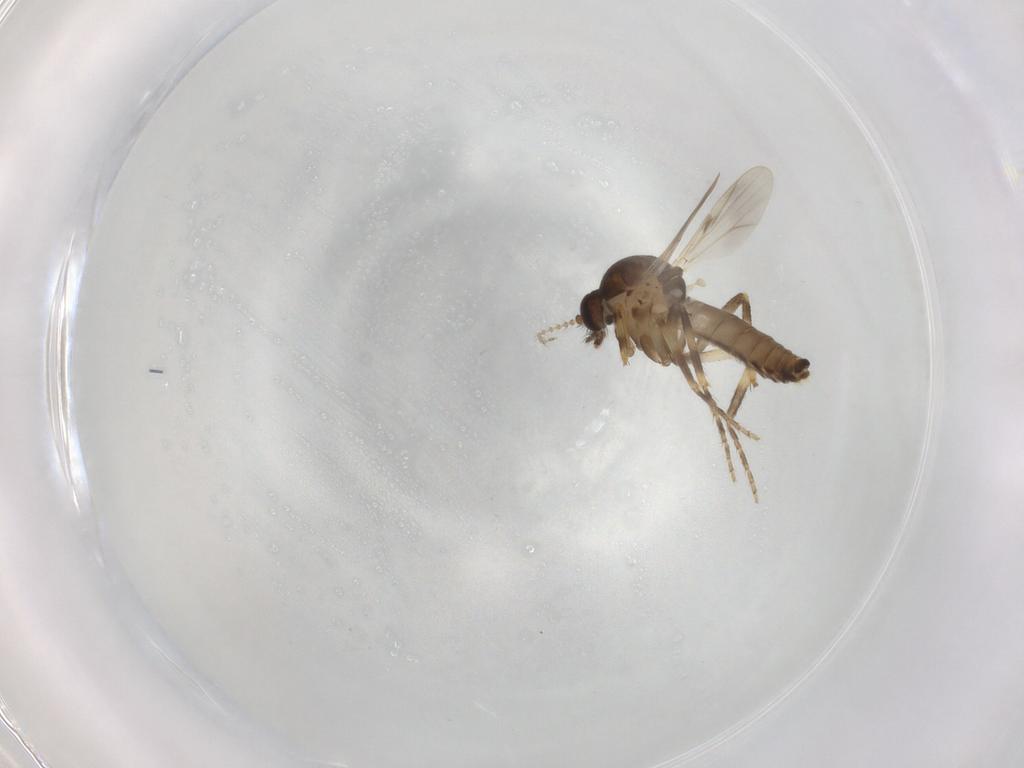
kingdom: Animalia
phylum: Arthropoda
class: Insecta
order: Diptera
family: Ceratopogonidae
